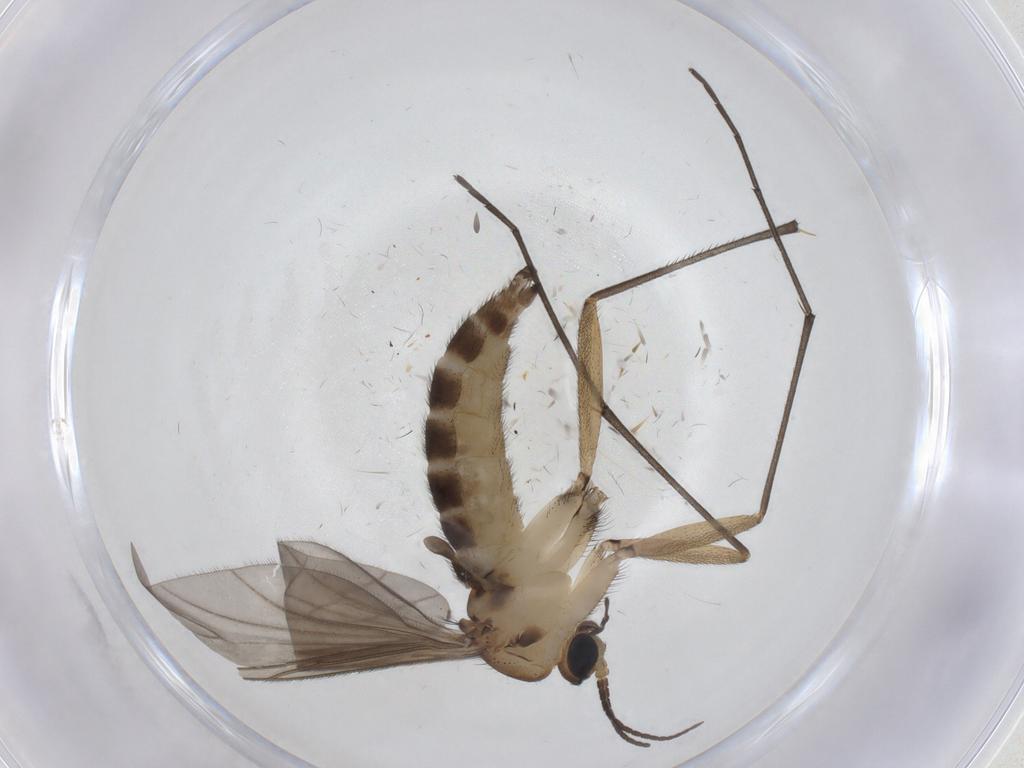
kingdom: Animalia
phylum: Arthropoda
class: Insecta
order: Diptera
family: Sciaridae
